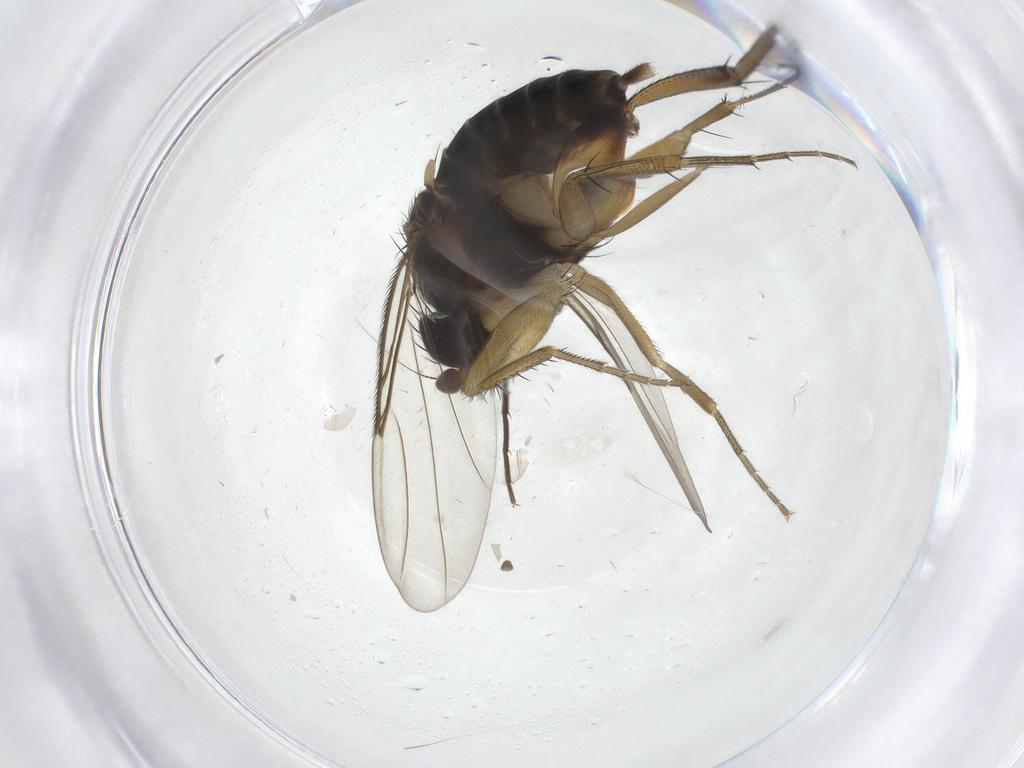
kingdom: Animalia
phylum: Arthropoda
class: Insecta
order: Diptera
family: Phoridae
